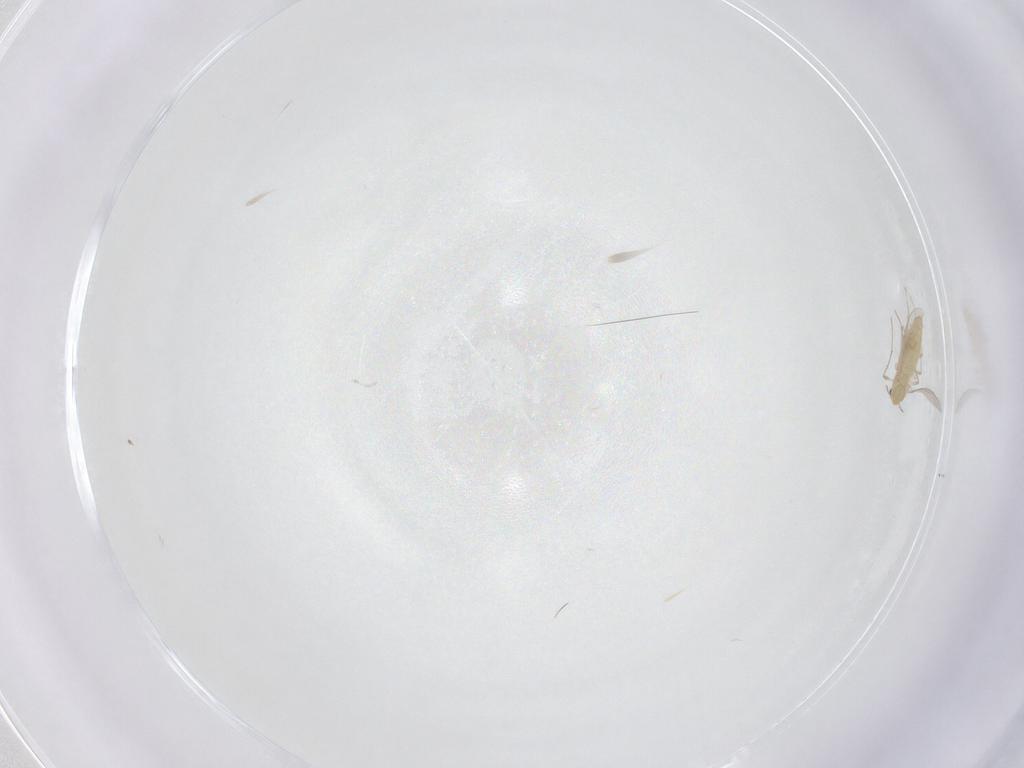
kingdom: Animalia
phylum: Arthropoda
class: Insecta
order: Diptera
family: Chironomidae
